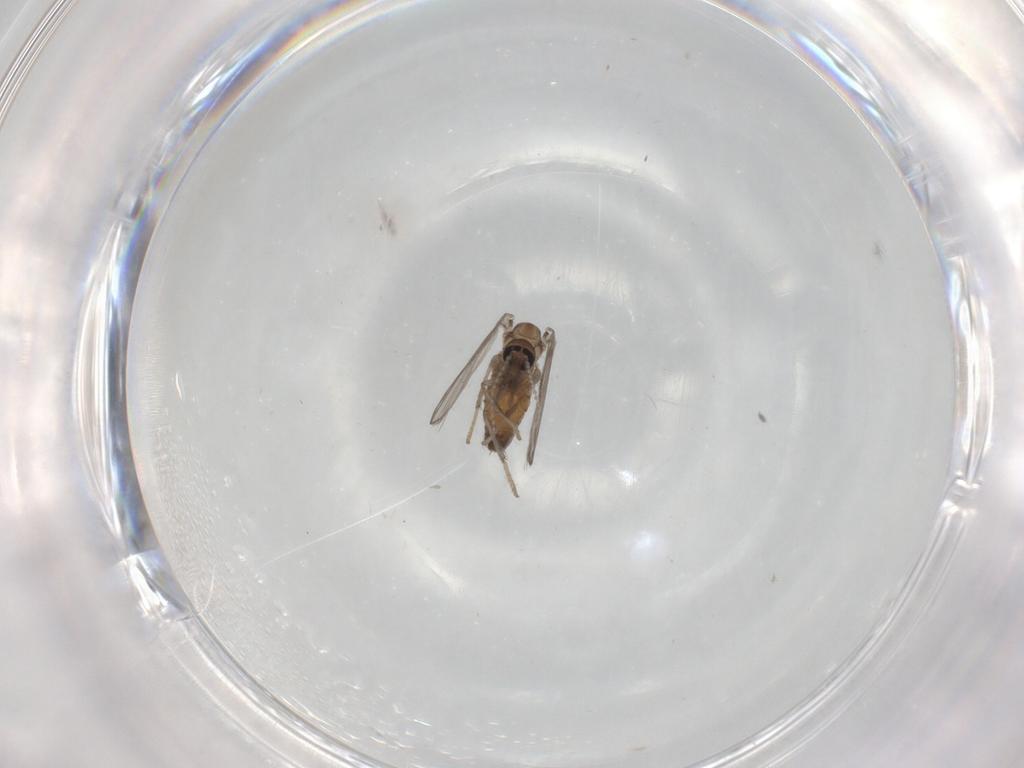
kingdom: Animalia
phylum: Arthropoda
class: Insecta
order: Diptera
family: Psychodidae
